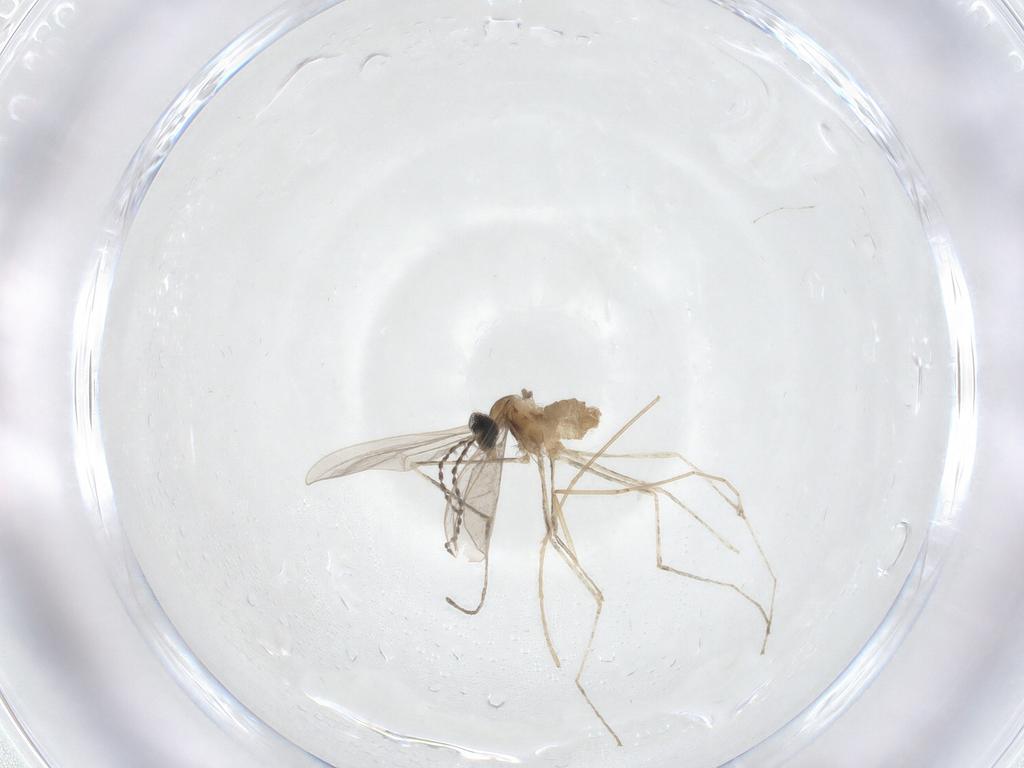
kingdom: Animalia
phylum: Arthropoda
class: Insecta
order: Diptera
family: Cecidomyiidae
